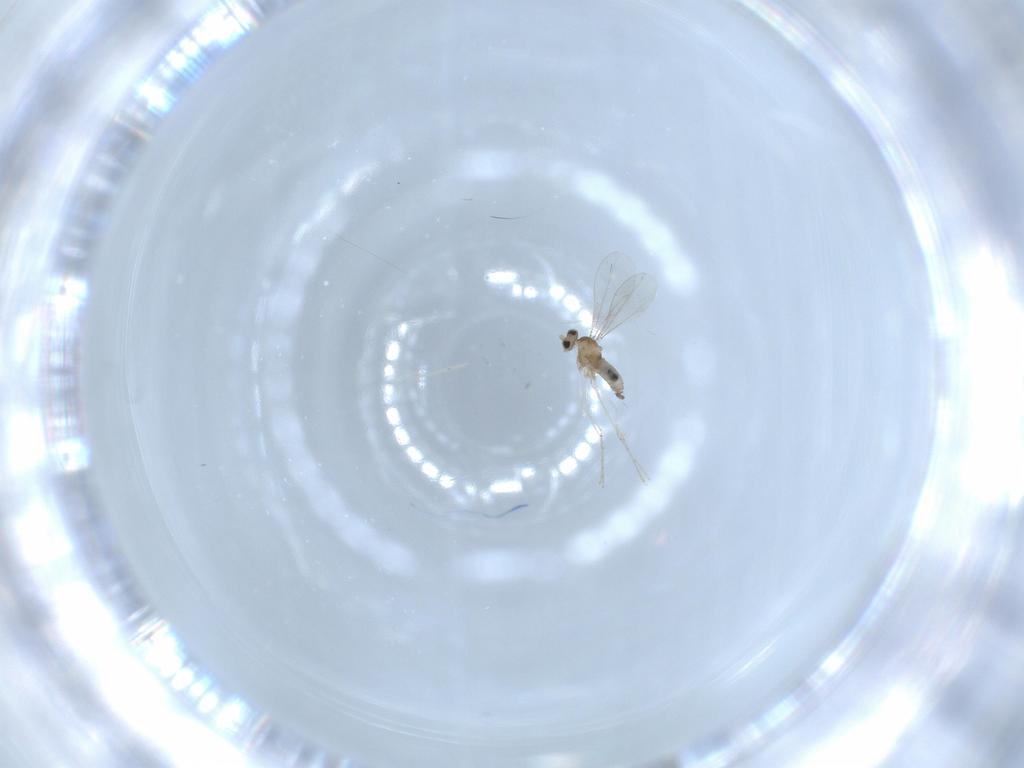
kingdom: Animalia
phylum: Arthropoda
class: Insecta
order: Diptera
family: Cecidomyiidae
